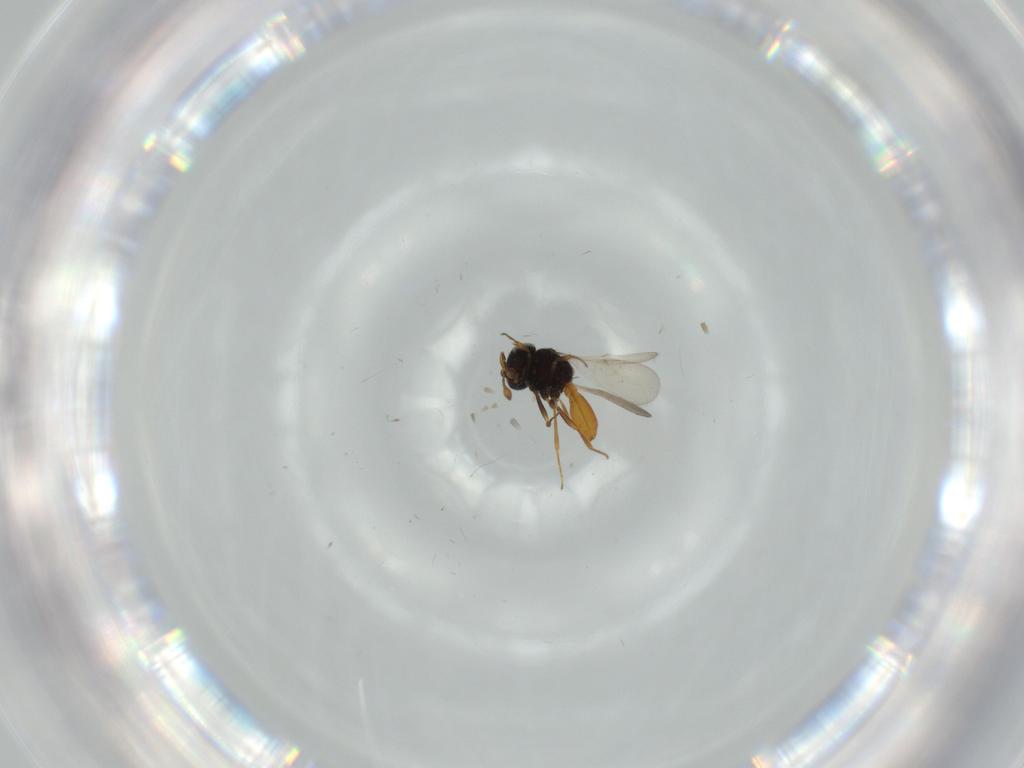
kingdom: Animalia
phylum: Arthropoda
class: Insecta
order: Hymenoptera
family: Scelionidae
